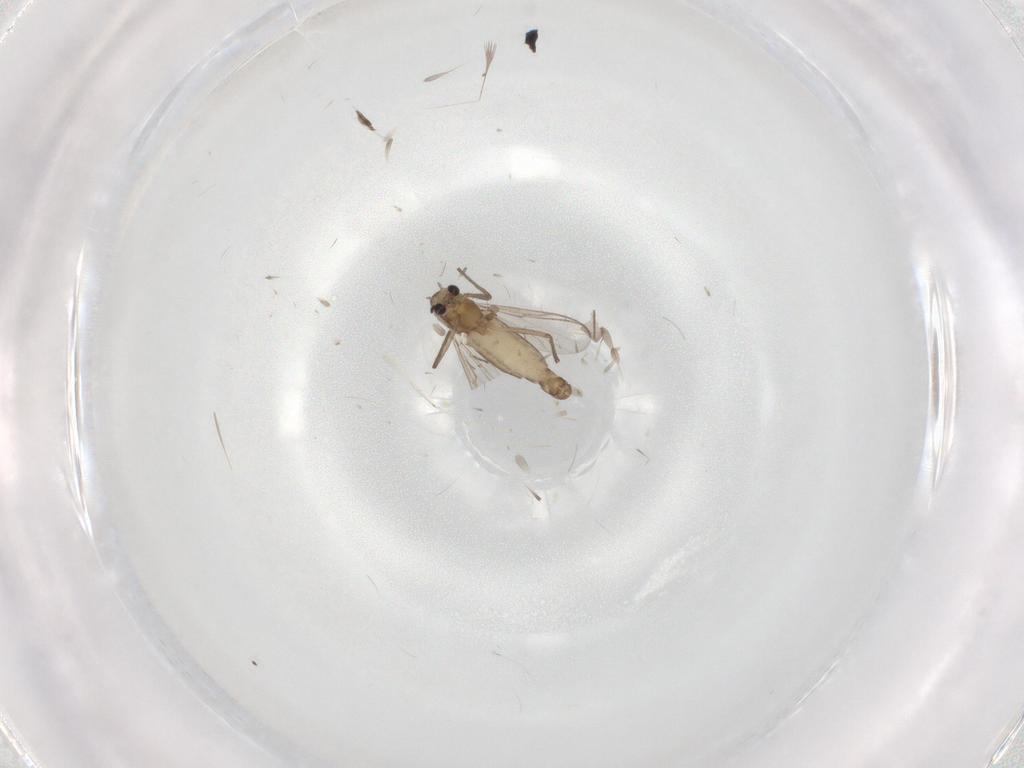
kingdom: Animalia
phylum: Arthropoda
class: Insecta
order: Diptera
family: Chironomidae
